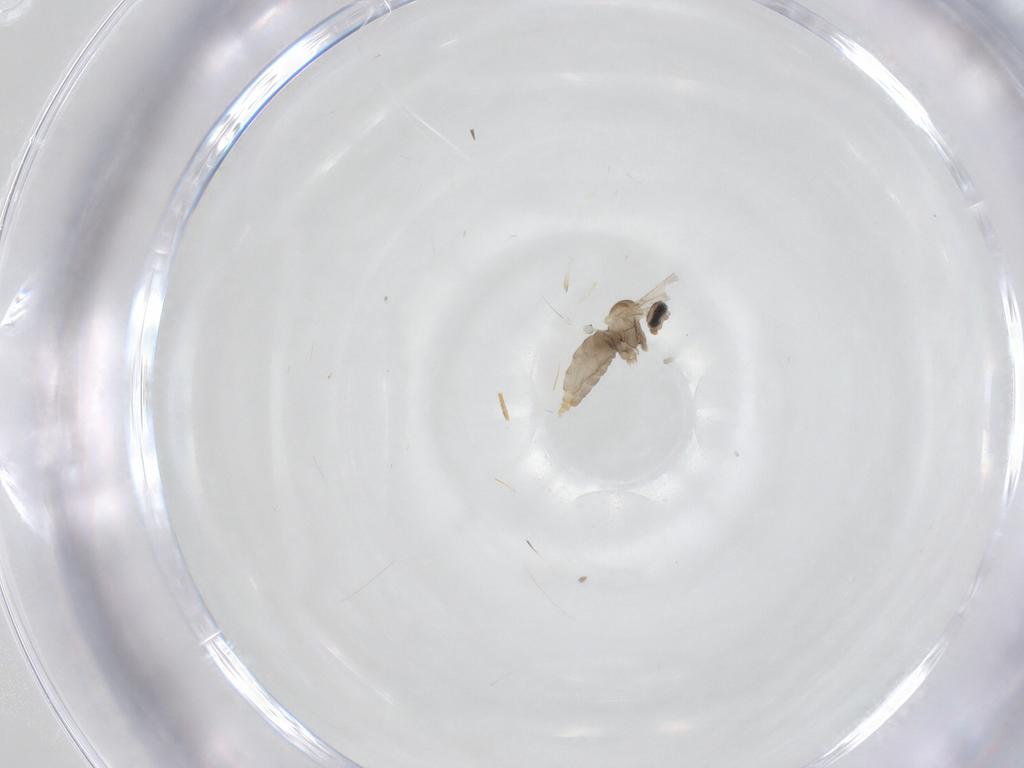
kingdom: Animalia
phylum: Arthropoda
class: Insecta
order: Diptera
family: Cecidomyiidae
